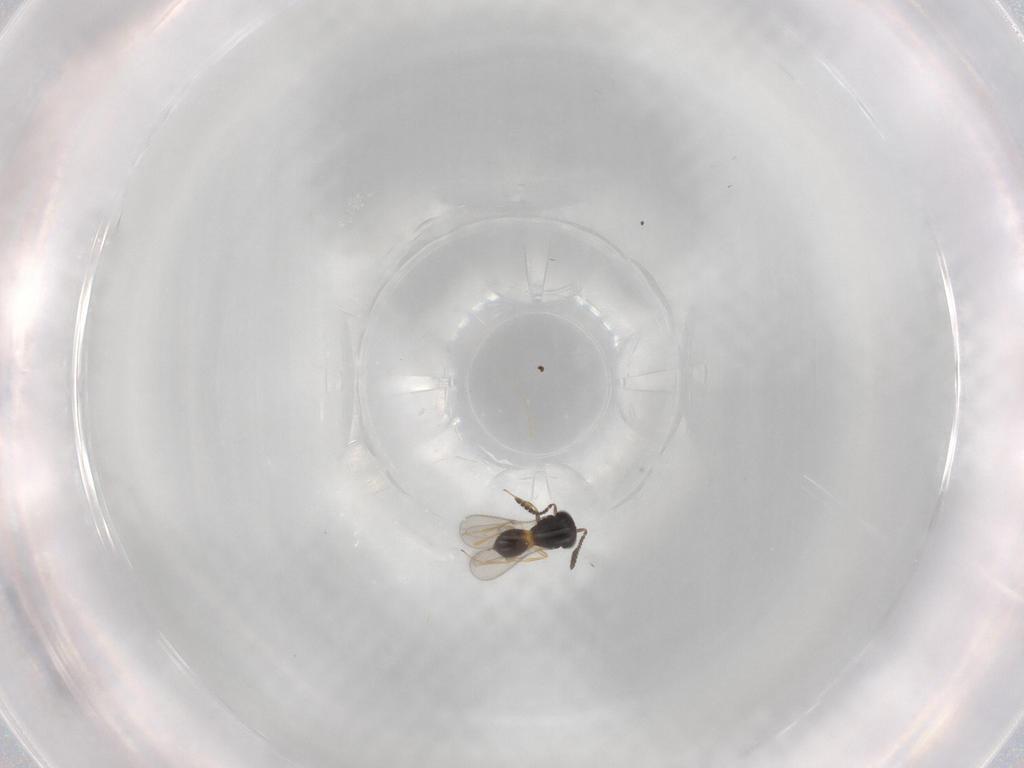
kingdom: Animalia
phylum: Arthropoda
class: Insecta
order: Hymenoptera
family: Scelionidae
